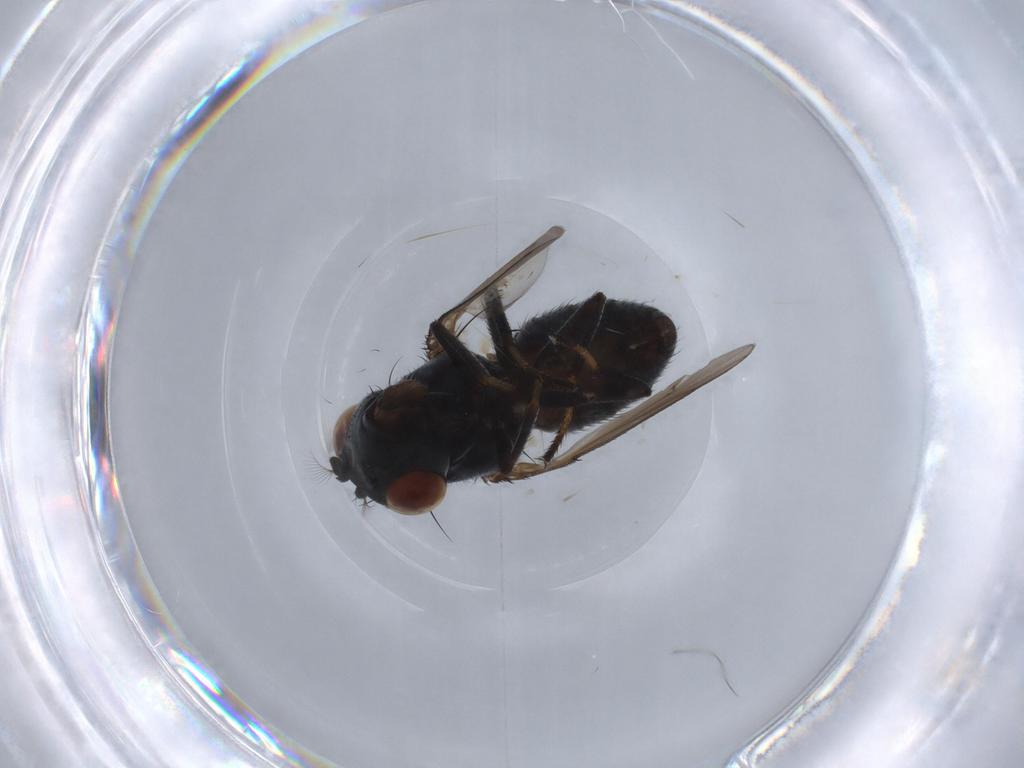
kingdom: Animalia
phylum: Arthropoda
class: Insecta
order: Diptera
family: Ephydridae
